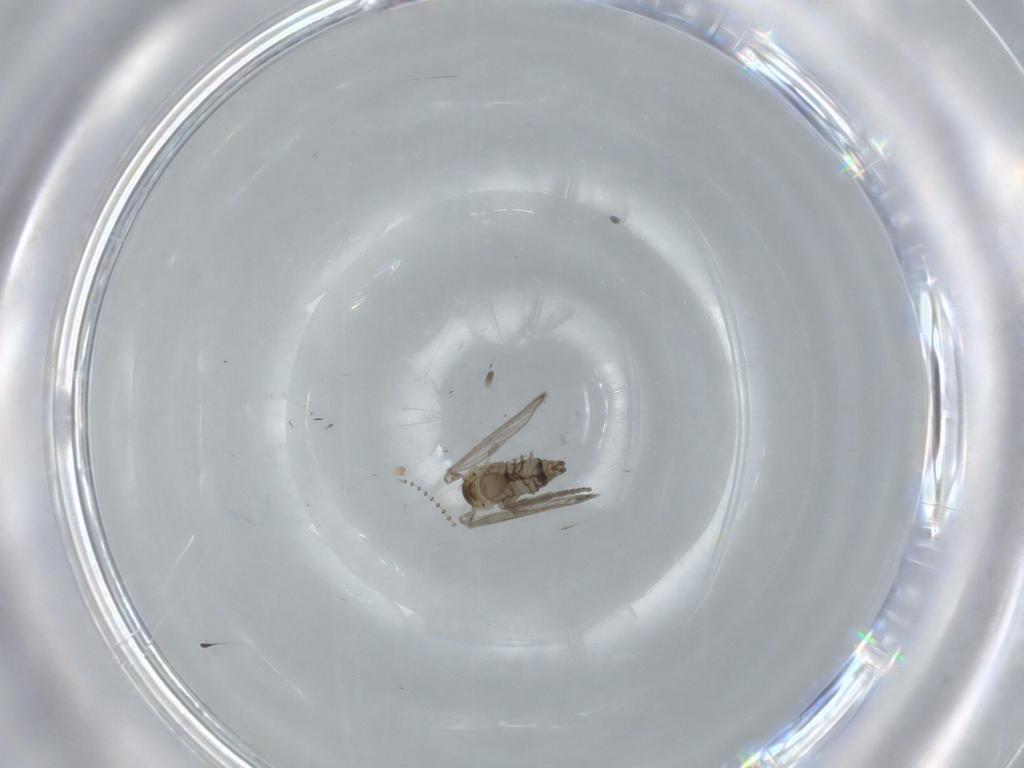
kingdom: Animalia
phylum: Arthropoda
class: Insecta
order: Diptera
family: Psychodidae
